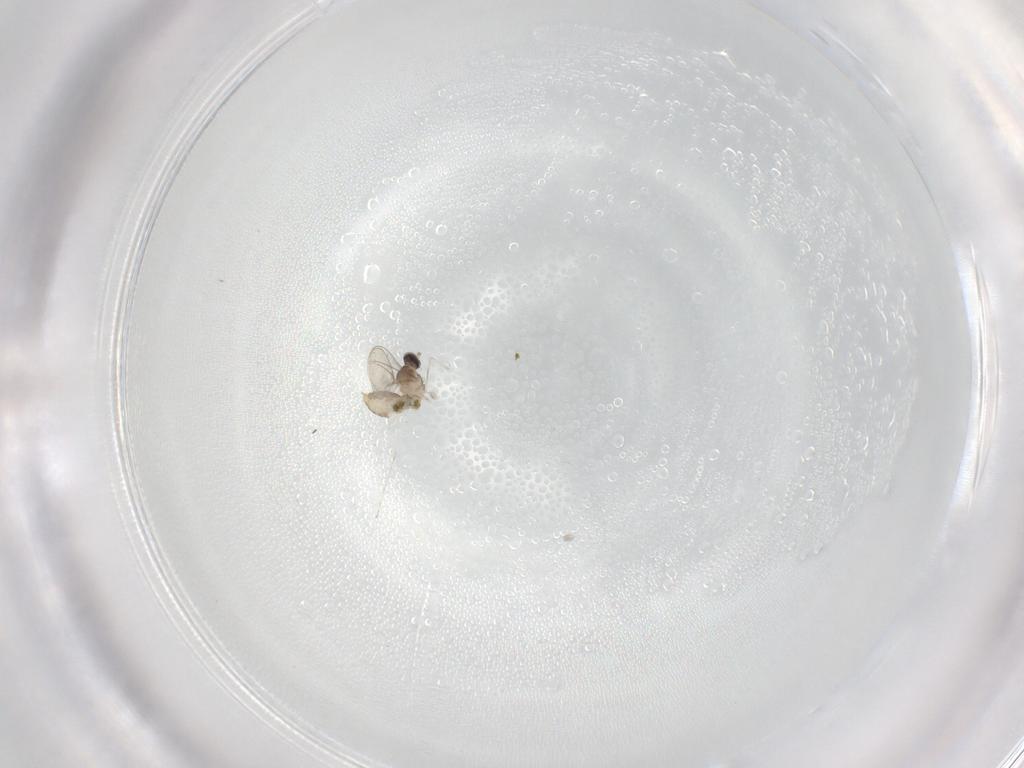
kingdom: Animalia
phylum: Arthropoda
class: Insecta
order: Diptera
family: Cecidomyiidae
